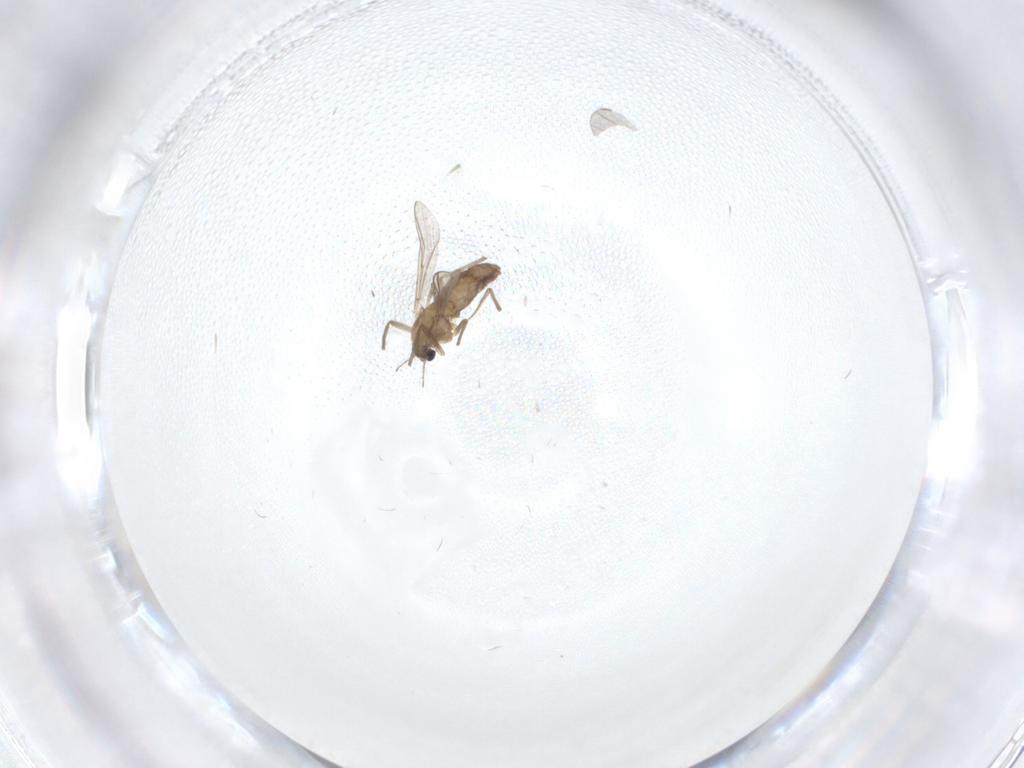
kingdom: Animalia
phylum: Arthropoda
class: Insecta
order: Diptera
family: Chironomidae
